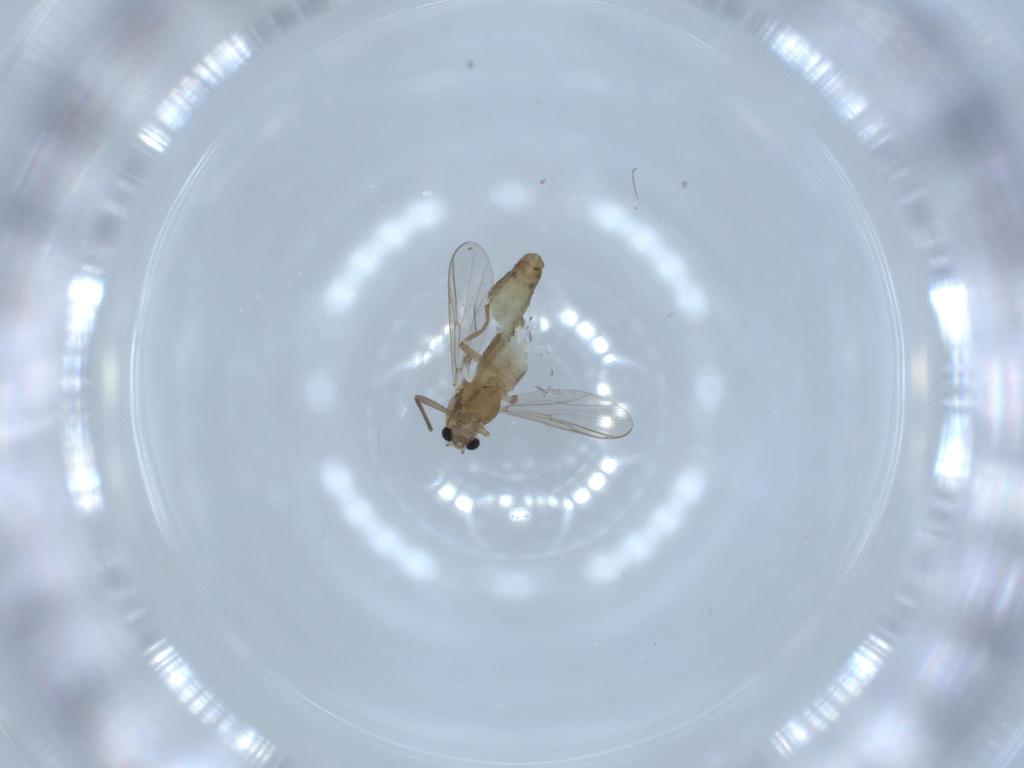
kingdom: Animalia
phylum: Arthropoda
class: Insecta
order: Diptera
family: Chironomidae
